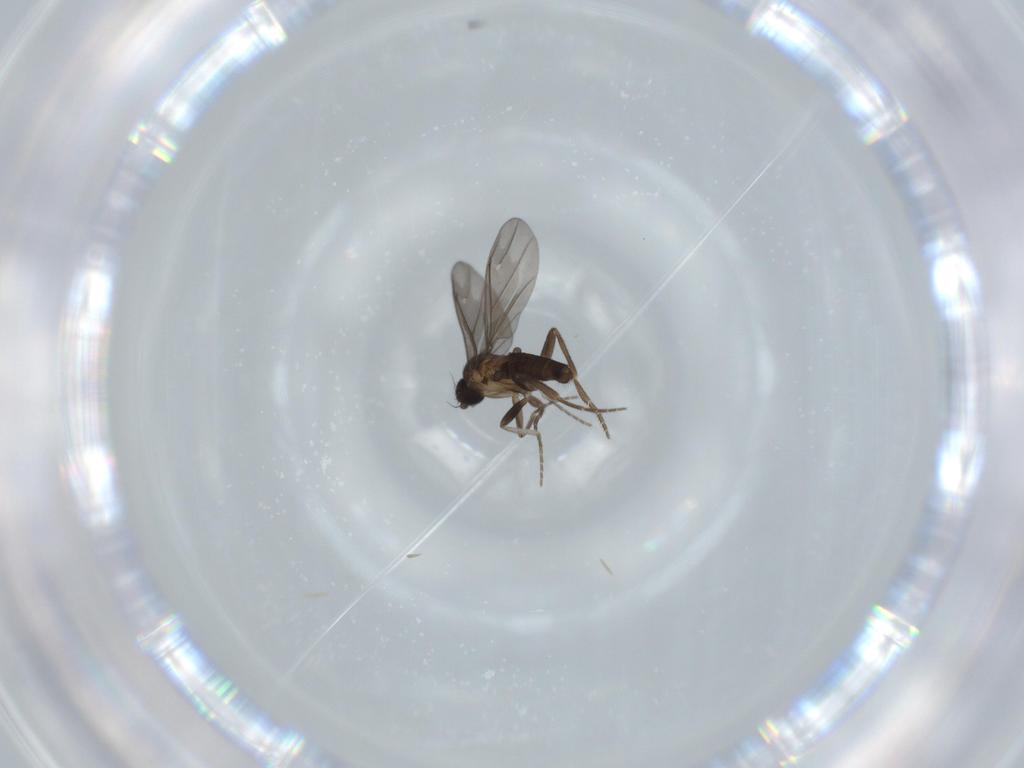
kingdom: Animalia
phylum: Arthropoda
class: Insecta
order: Diptera
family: Phoridae
